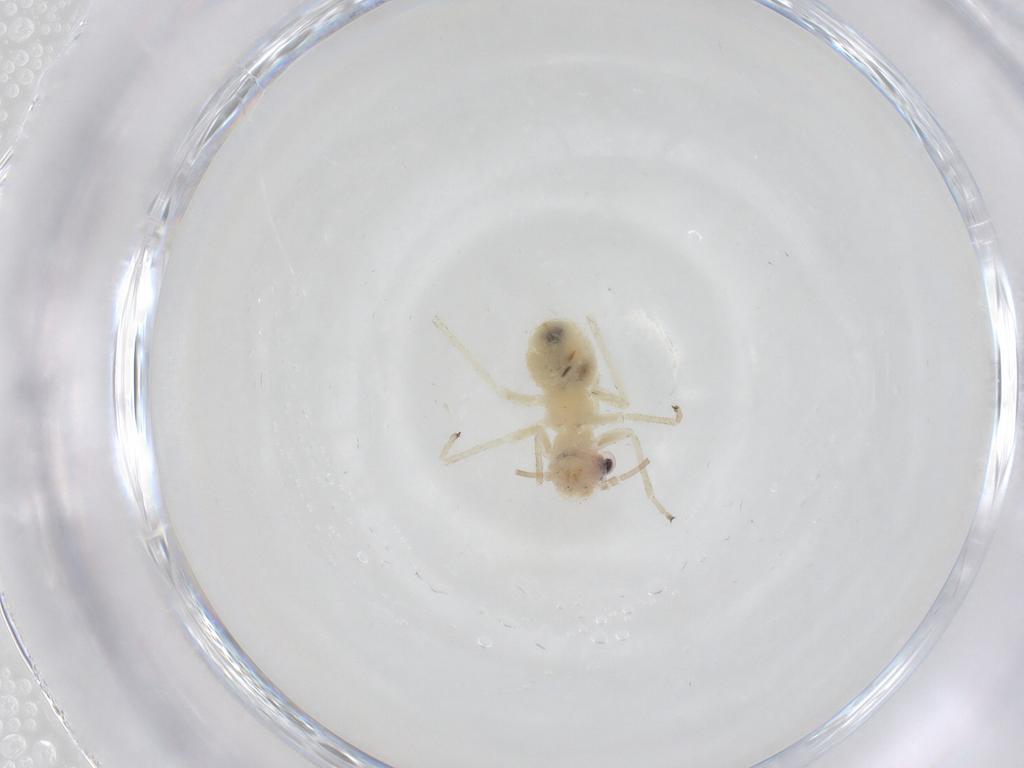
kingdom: Animalia
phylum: Arthropoda
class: Insecta
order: Psocodea
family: Caeciliusidae
